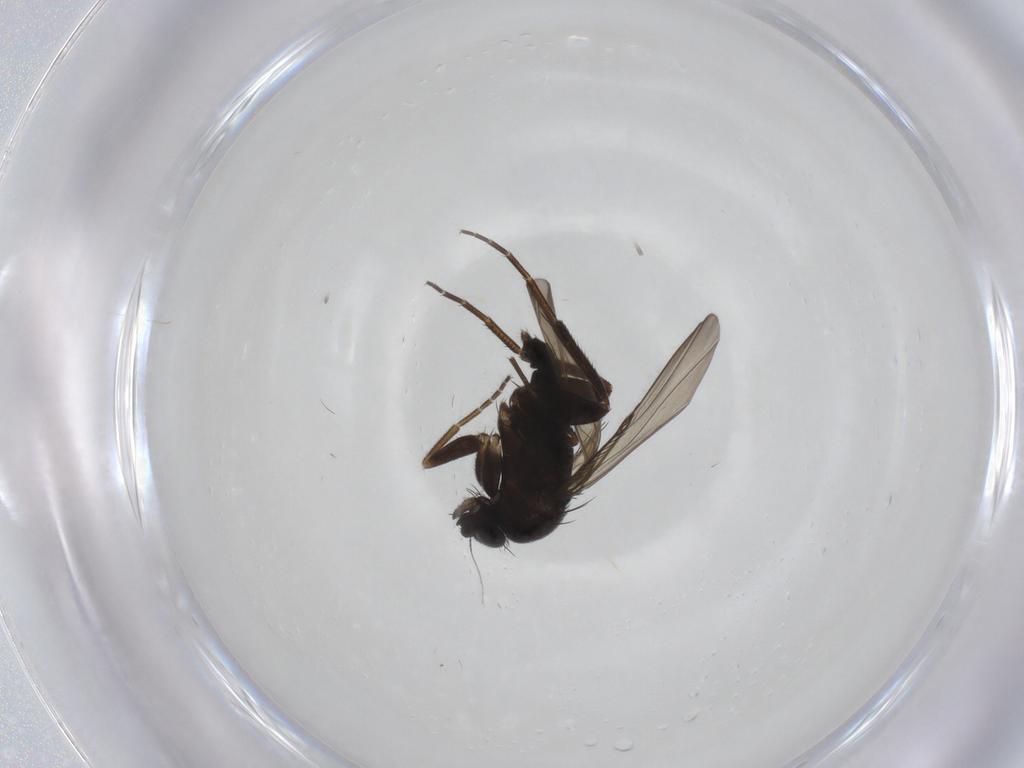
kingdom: Animalia
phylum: Arthropoda
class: Insecta
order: Diptera
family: Phoridae
